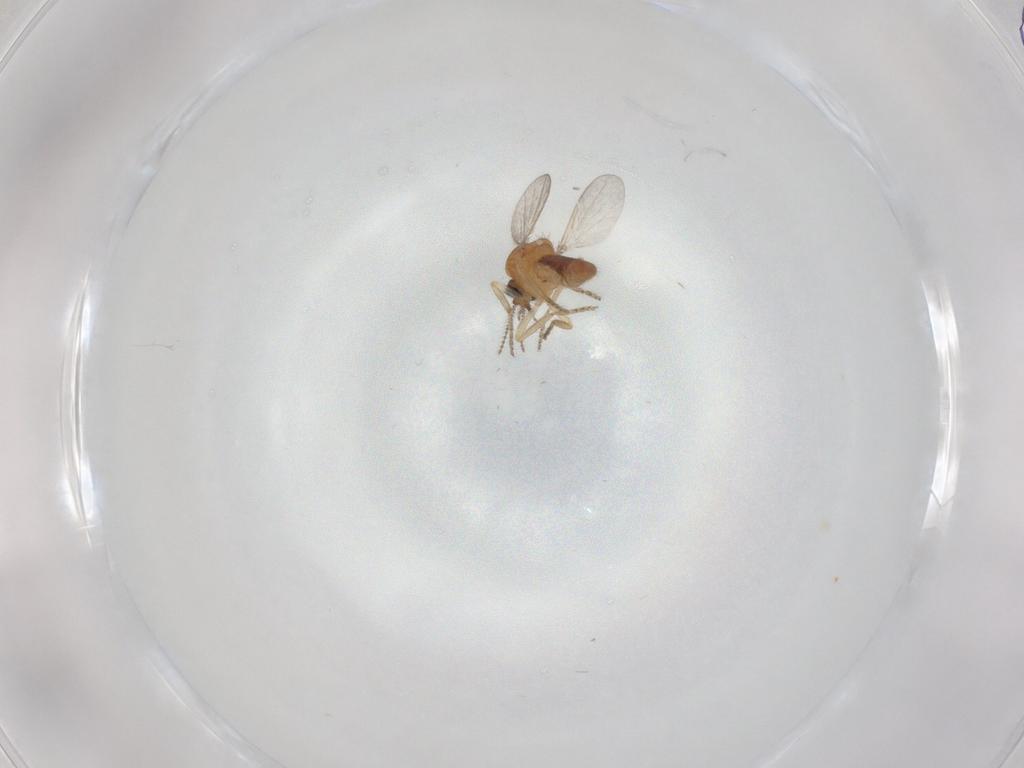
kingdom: Animalia
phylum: Arthropoda
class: Insecta
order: Diptera
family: Ceratopogonidae
